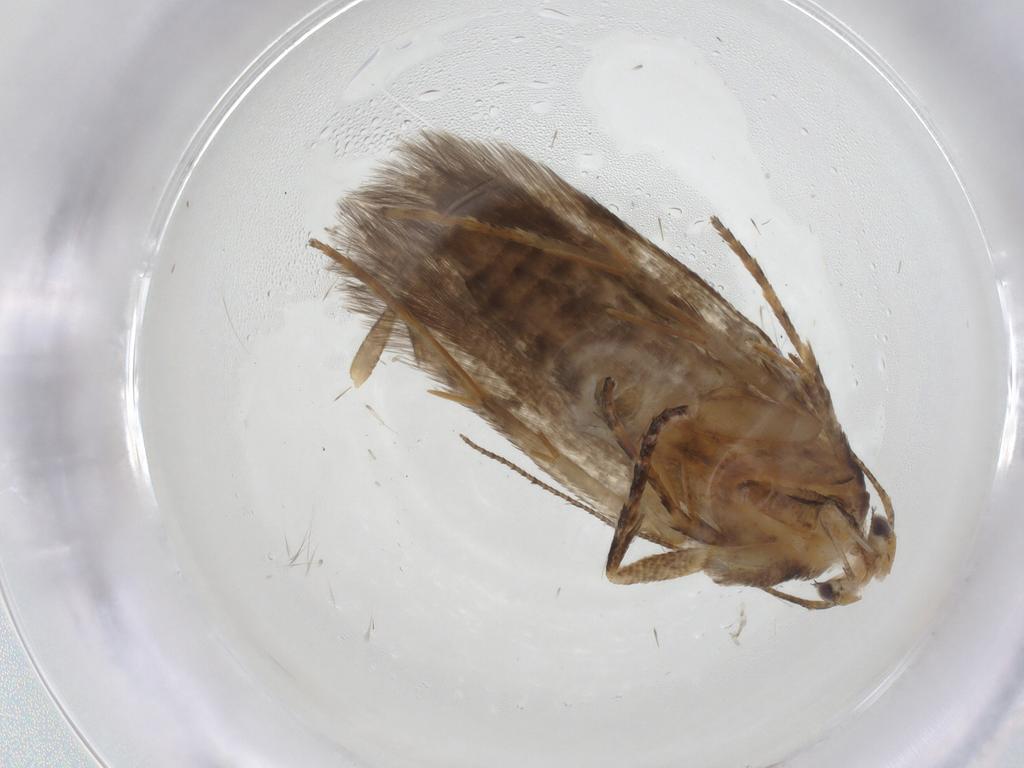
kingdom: Animalia
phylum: Arthropoda
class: Insecta
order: Lepidoptera
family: Gelechiidae
